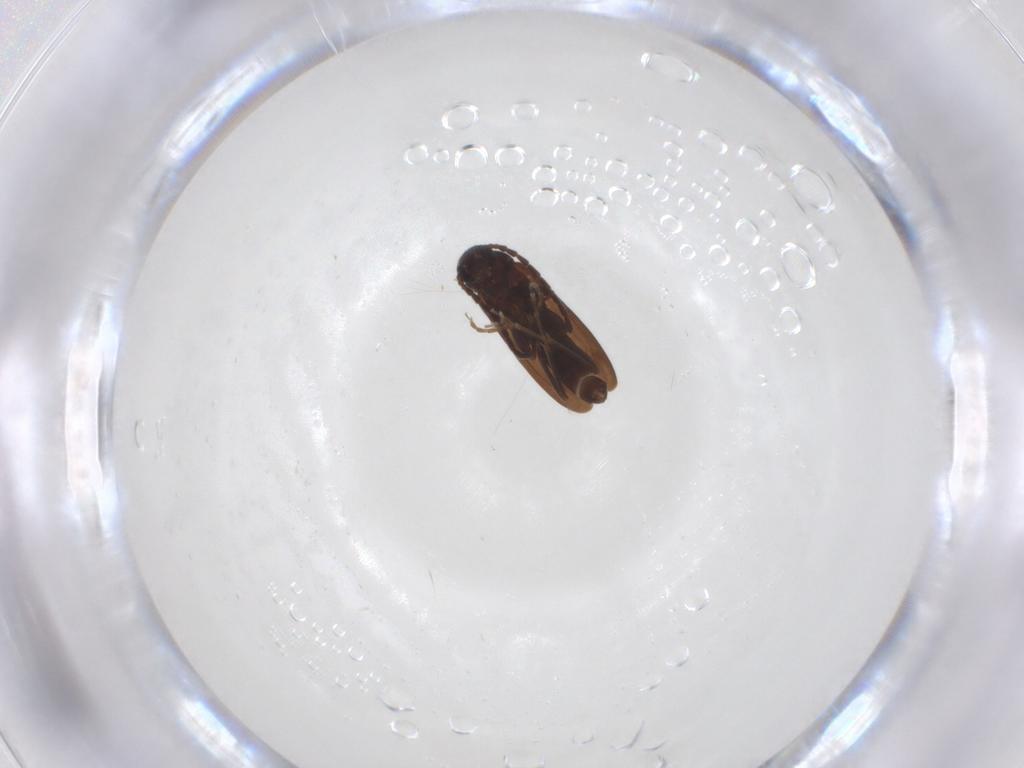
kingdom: Animalia
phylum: Arthropoda
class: Insecta
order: Coleoptera
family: Scraptiidae
